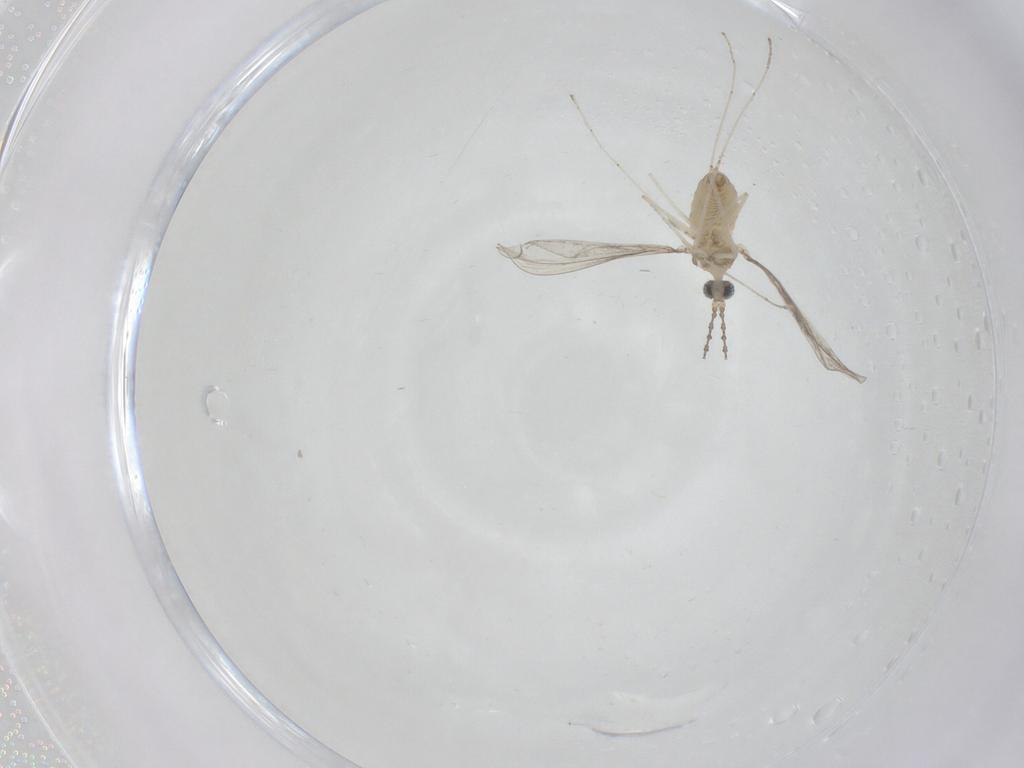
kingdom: Animalia
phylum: Arthropoda
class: Insecta
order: Diptera
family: Cecidomyiidae
